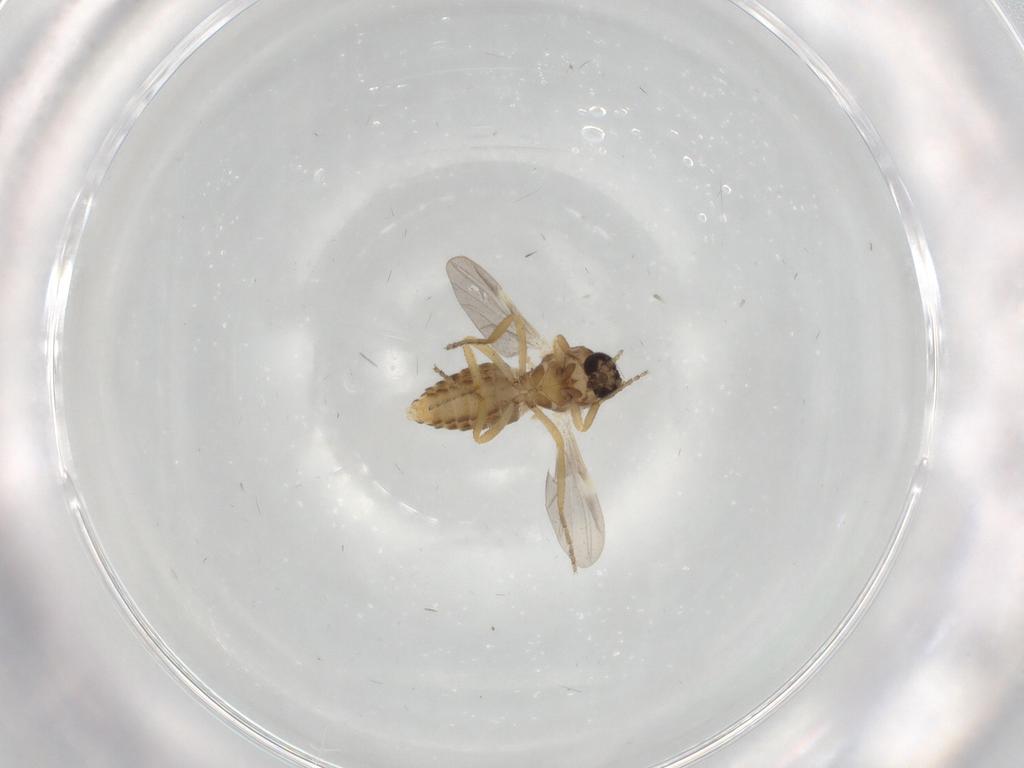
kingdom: Animalia
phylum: Arthropoda
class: Insecta
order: Diptera
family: Ceratopogonidae
